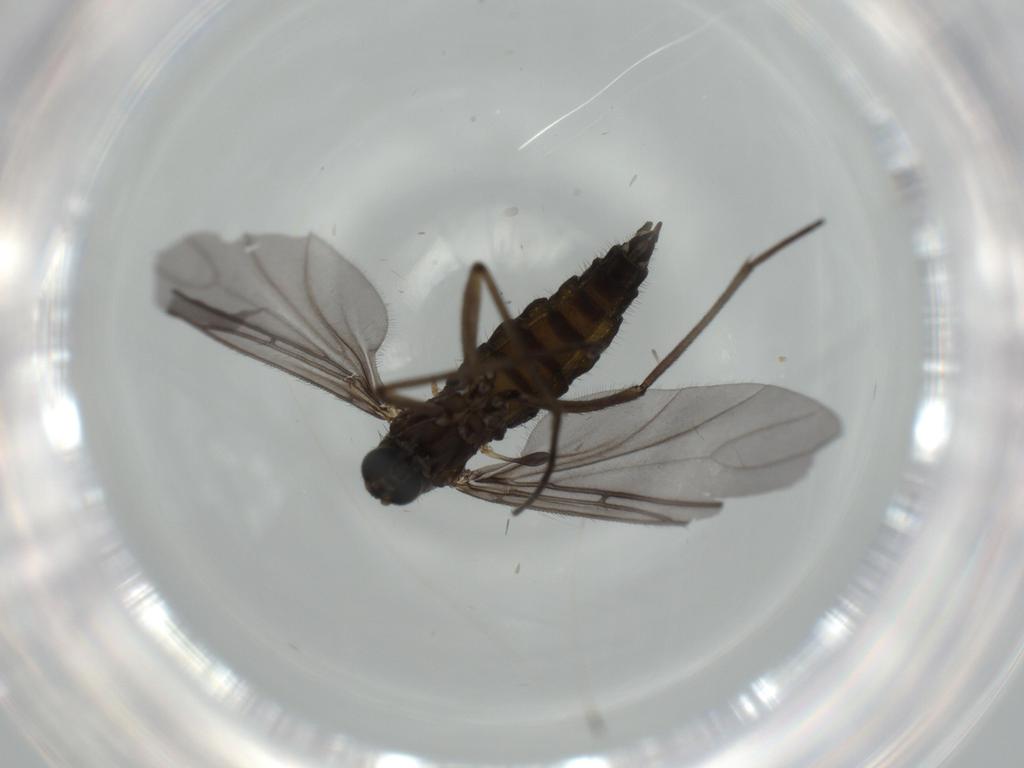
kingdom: Animalia
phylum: Arthropoda
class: Insecta
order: Diptera
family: Sciaridae
